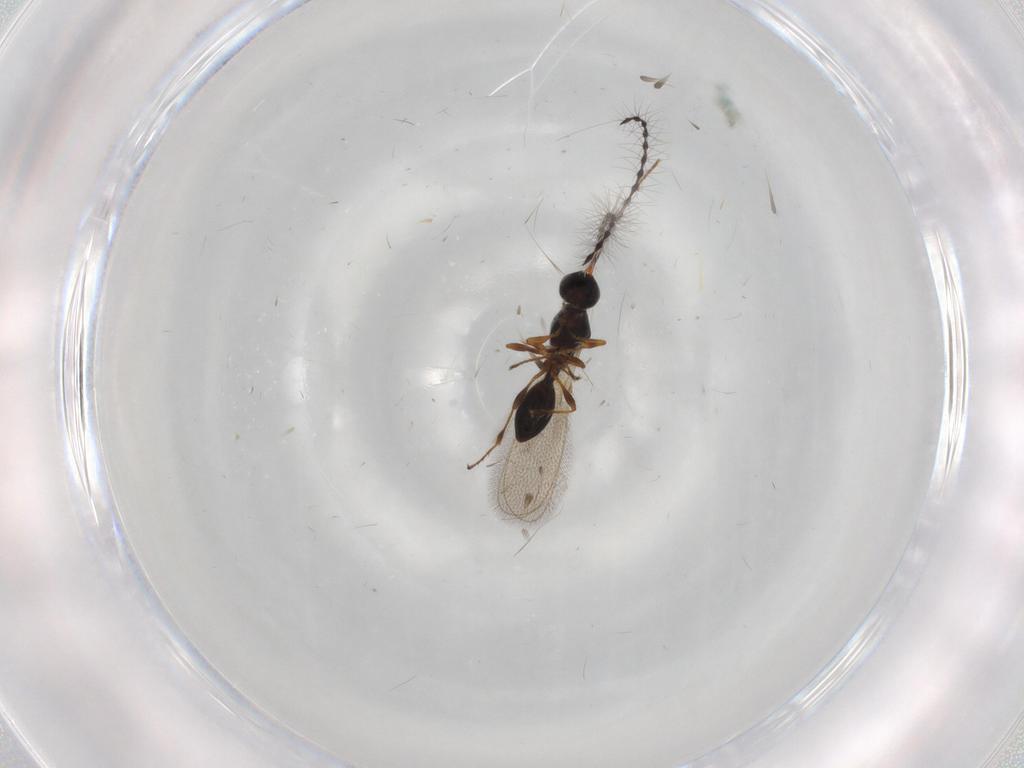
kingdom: Animalia
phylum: Arthropoda
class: Insecta
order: Hymenoptera
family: Diapriidae
